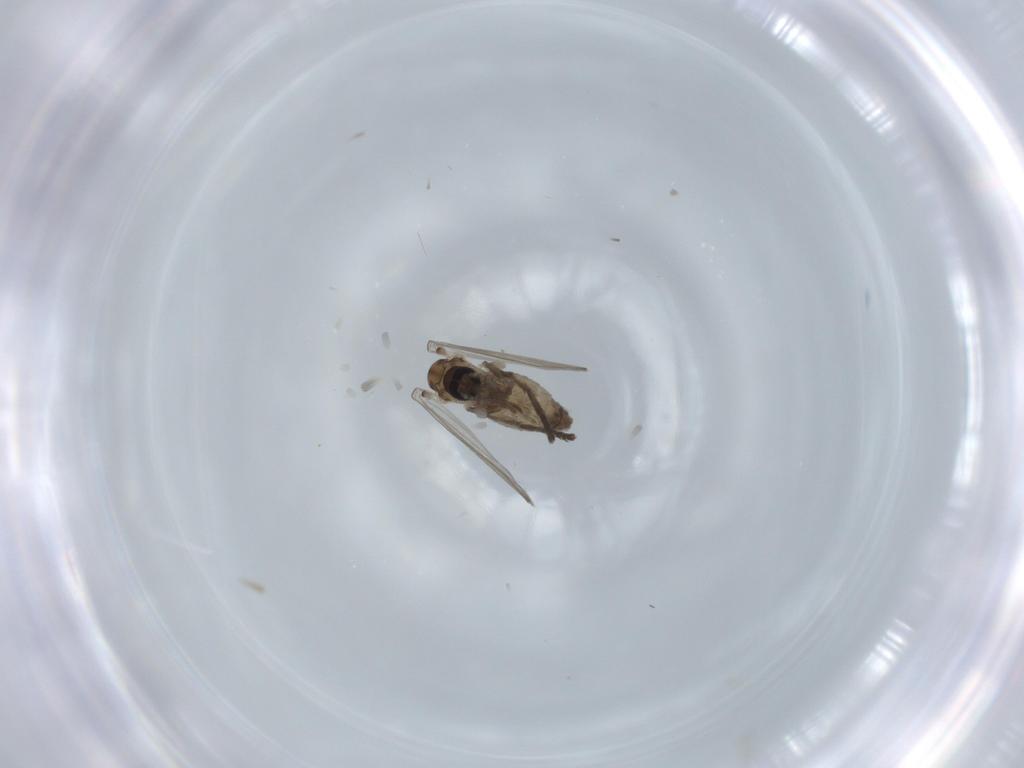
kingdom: Animalia
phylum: Arthropoda
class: Insecta
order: Diptera
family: Psychodidae
